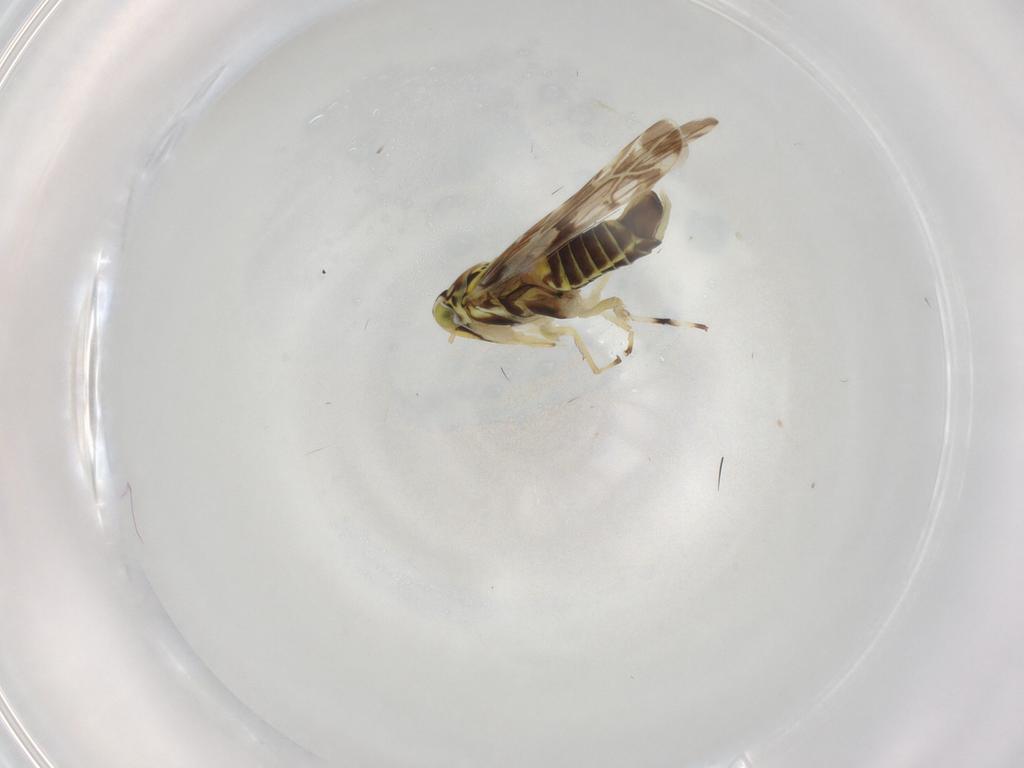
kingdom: Animalia
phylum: Arthropoda
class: Insecta
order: Hemiptera
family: Cicadellidae
